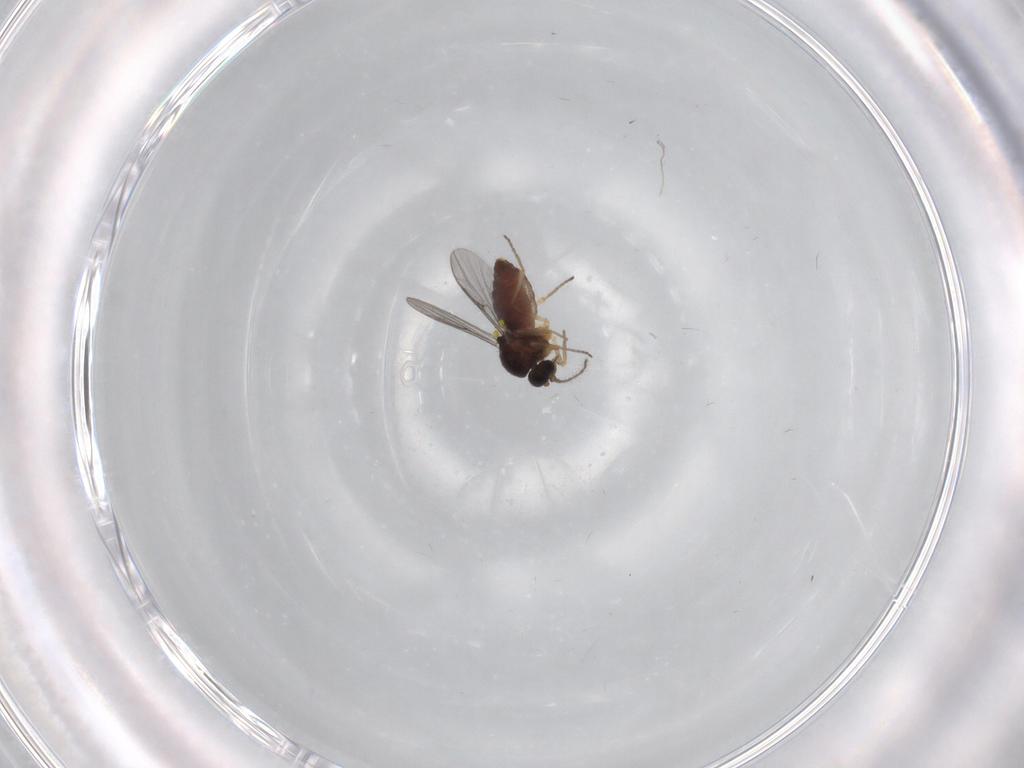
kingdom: Animalia
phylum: Arthropoda
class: Insecta
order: Diptera
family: Ceratopogonidae
